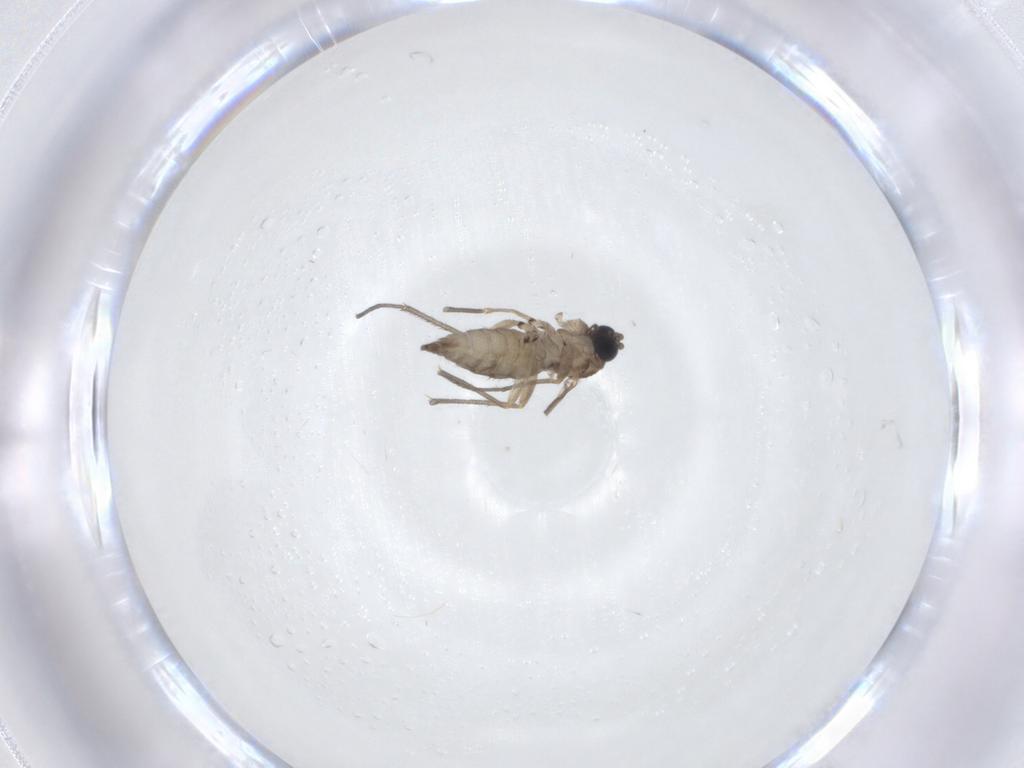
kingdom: Animalia
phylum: Arthropoda
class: Insecta
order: Diptera
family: Sciaridae
